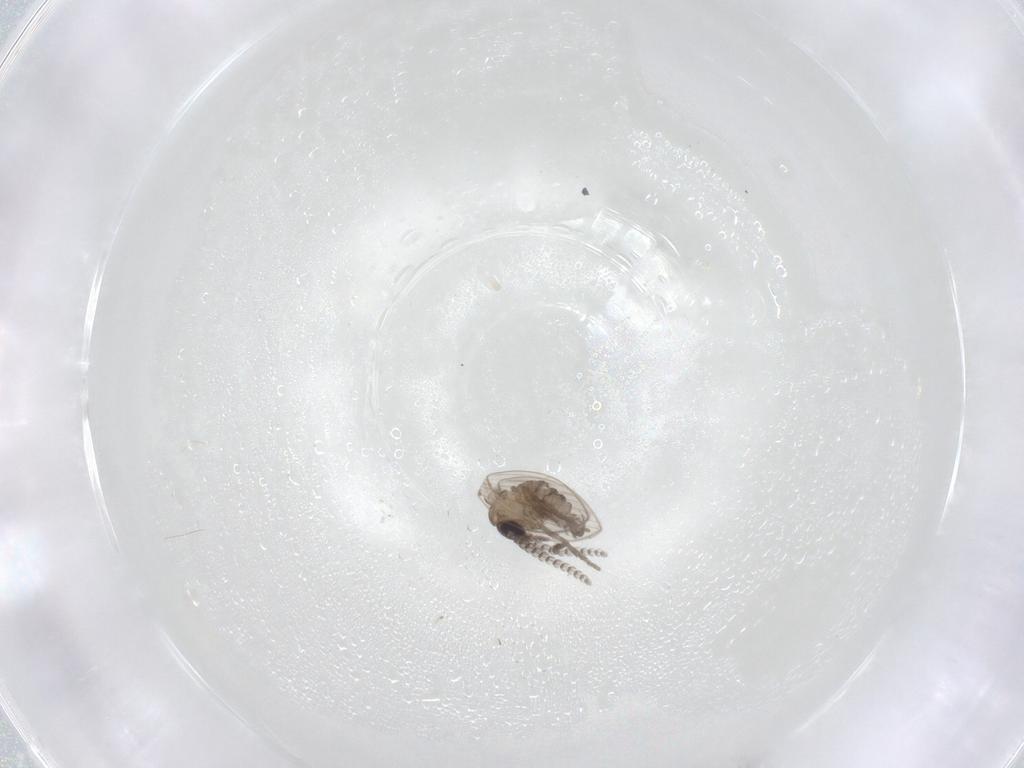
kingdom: Animalia
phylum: Arthropoda
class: Insecta
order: Diptera
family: Psychodidae
